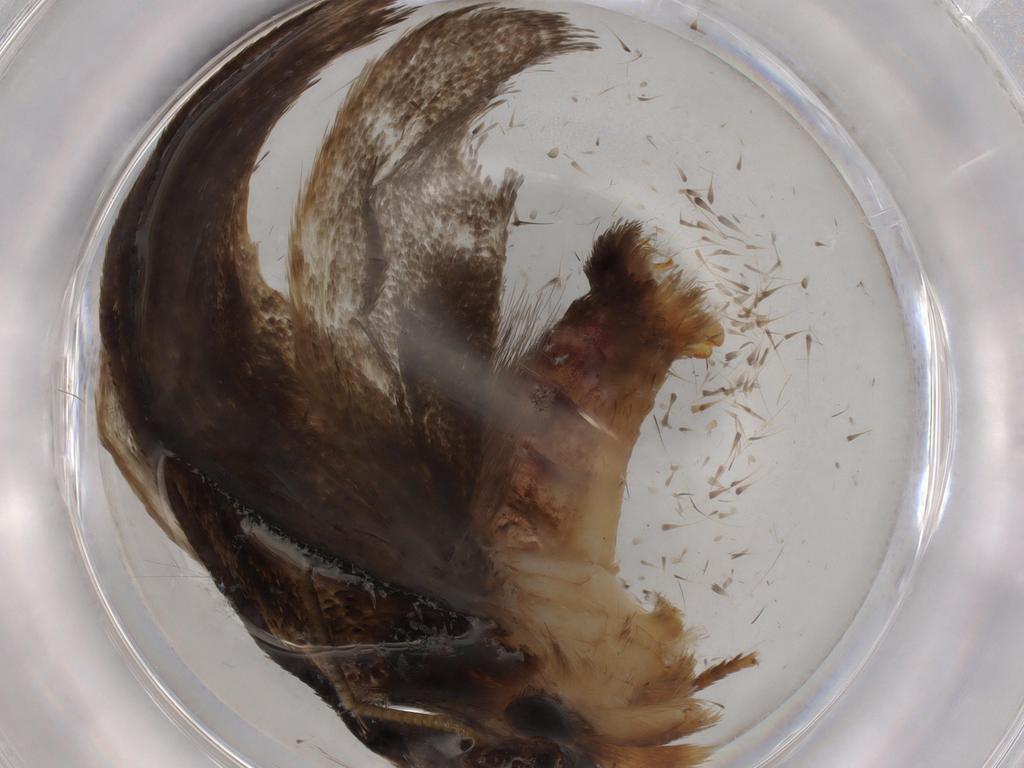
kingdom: Animalia
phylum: Arthropoda
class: Insecta
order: Lepidoptera
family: Tineidae
